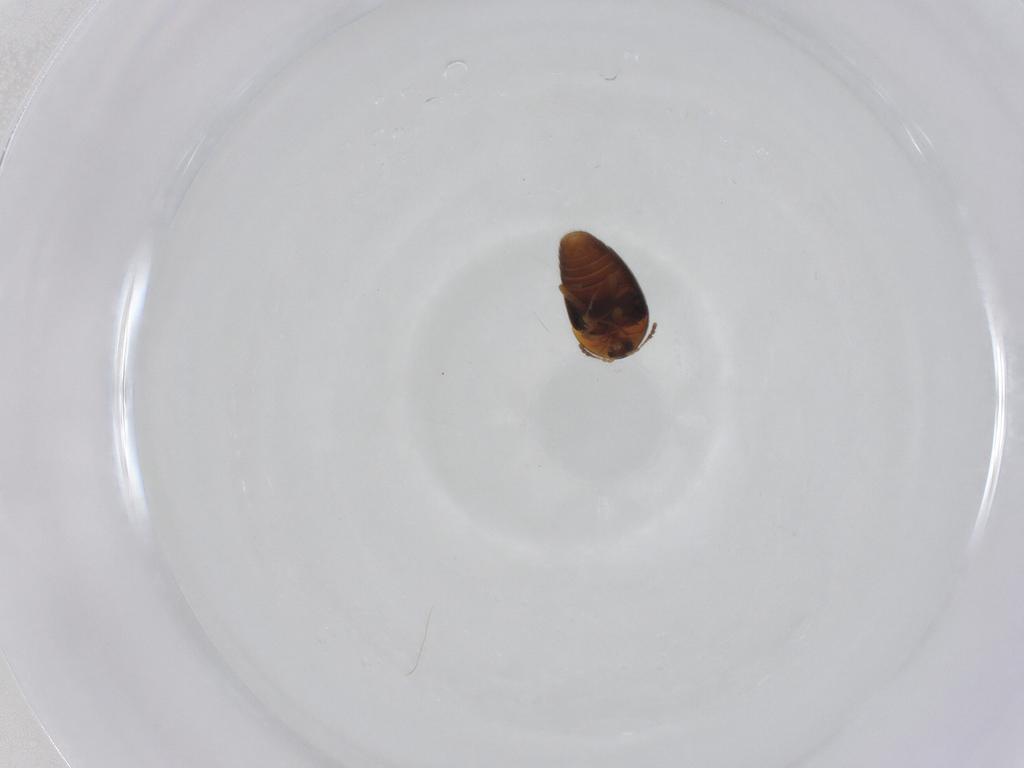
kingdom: Animalia
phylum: Arthropoda
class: Insecta
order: Coleoptera
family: Corylophidae
